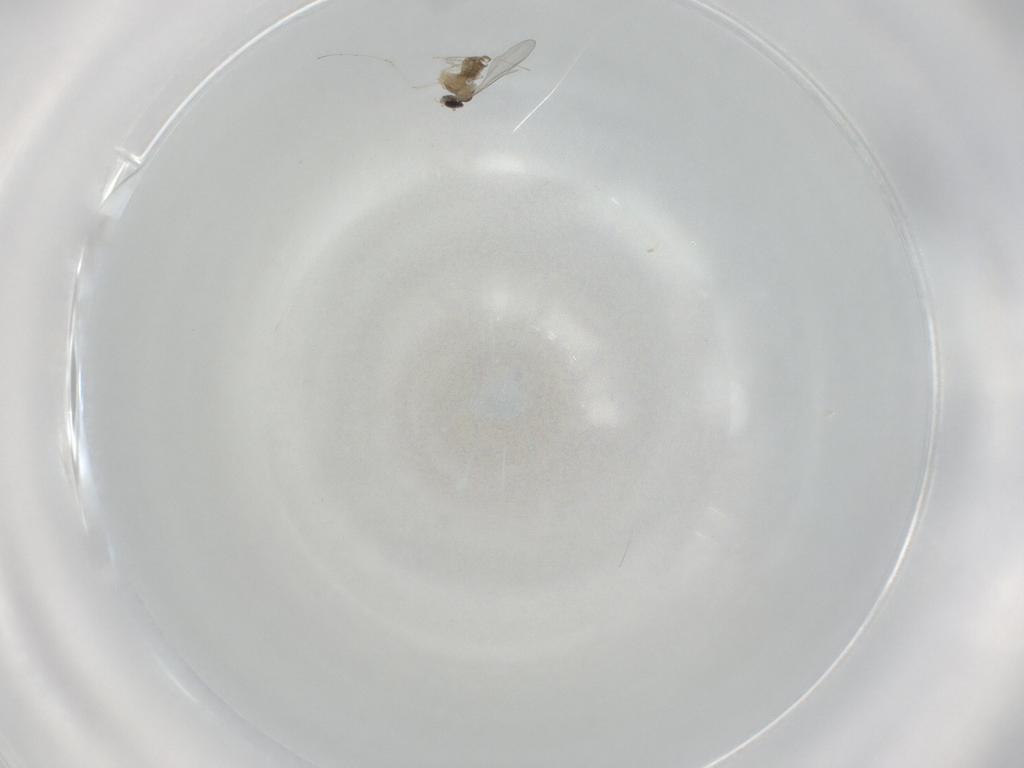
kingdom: Animalia
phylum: Arthropoda
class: Insecta
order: Diptera
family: Cecidomyiidae
